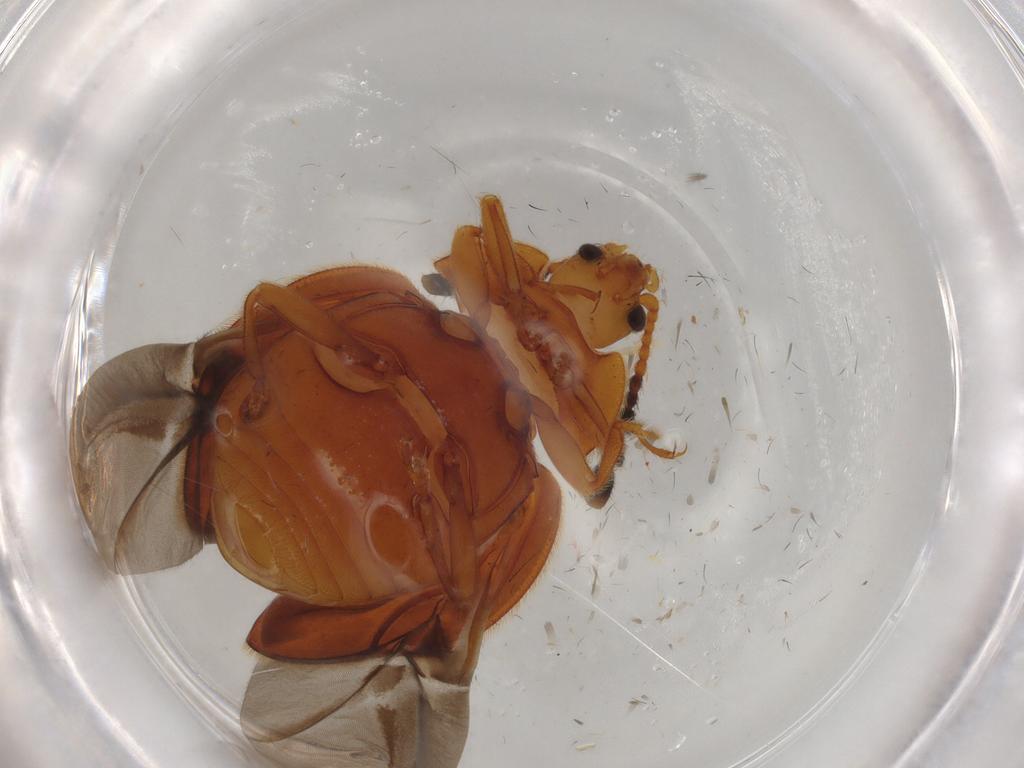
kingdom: Animalia
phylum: Arthropoda
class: Insecta
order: Coleoptera
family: Endomychidae
